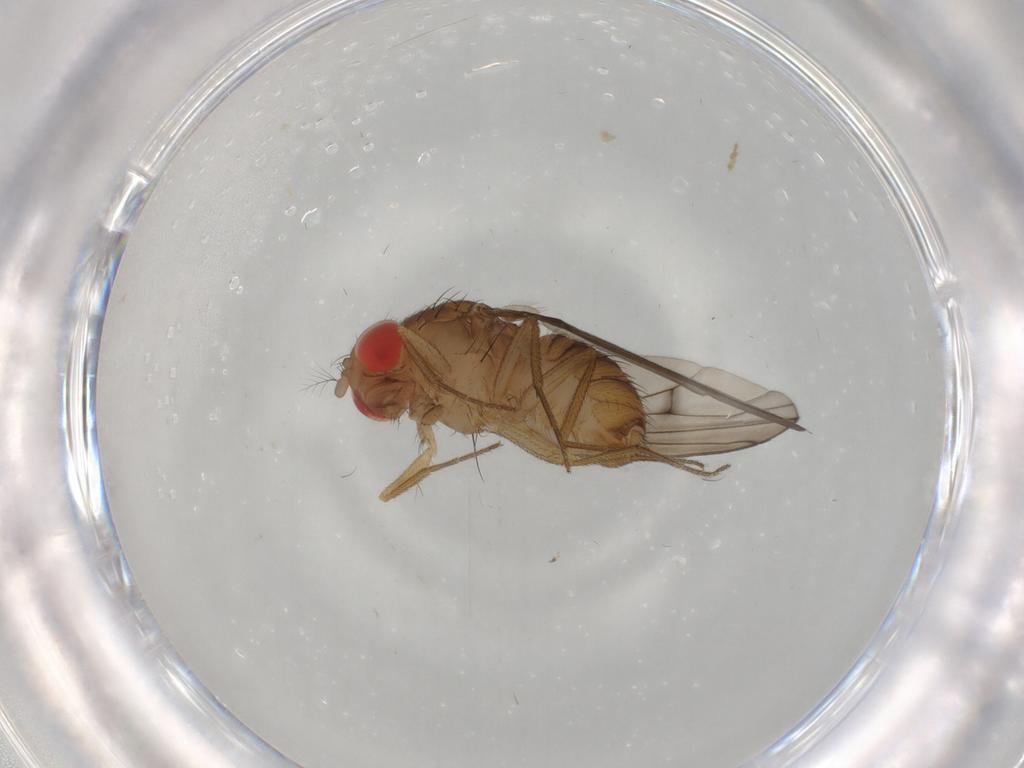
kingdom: Animalia
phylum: Arthropoda
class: Insecta
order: Diptera
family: Drosophilidae
